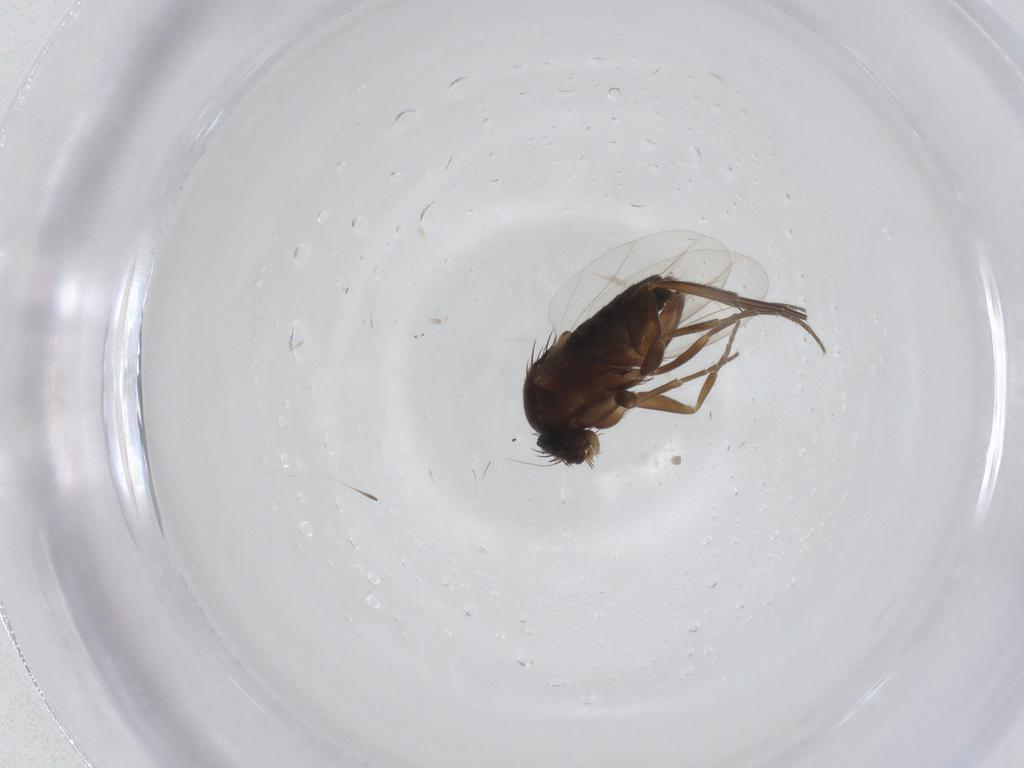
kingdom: Animalia
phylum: Arthropoda
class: Insecta
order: Diptera
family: Phoridae
